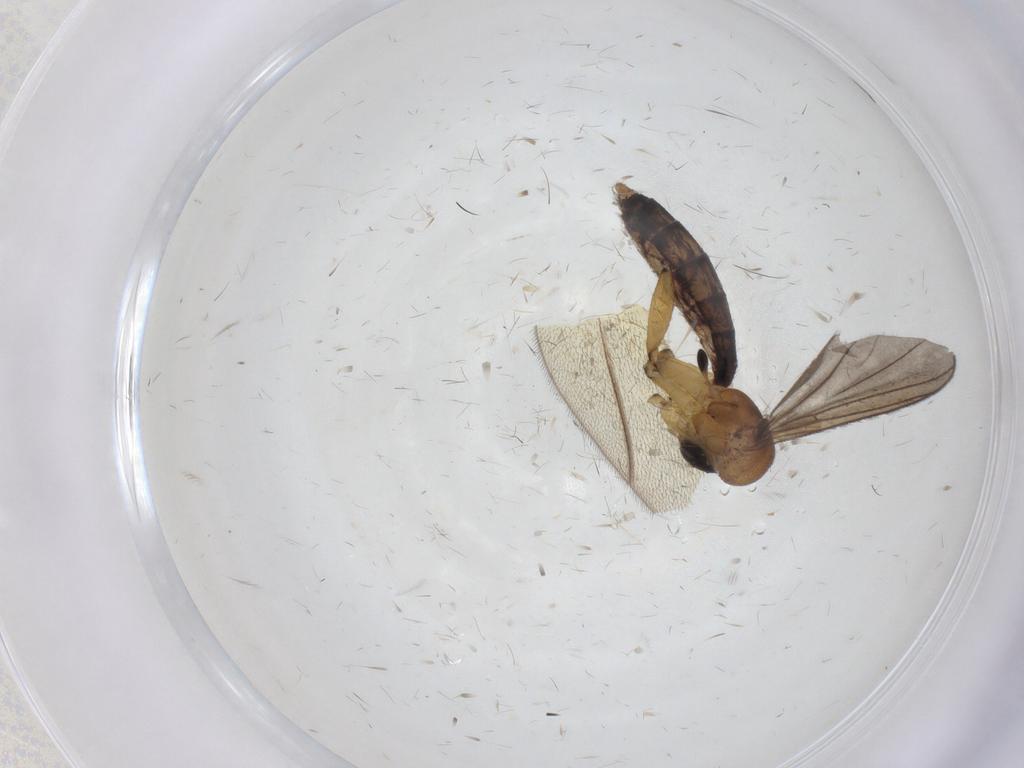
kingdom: Animalia
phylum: Arthropoda
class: Insecta
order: Diptera
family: Mycetophilidae
